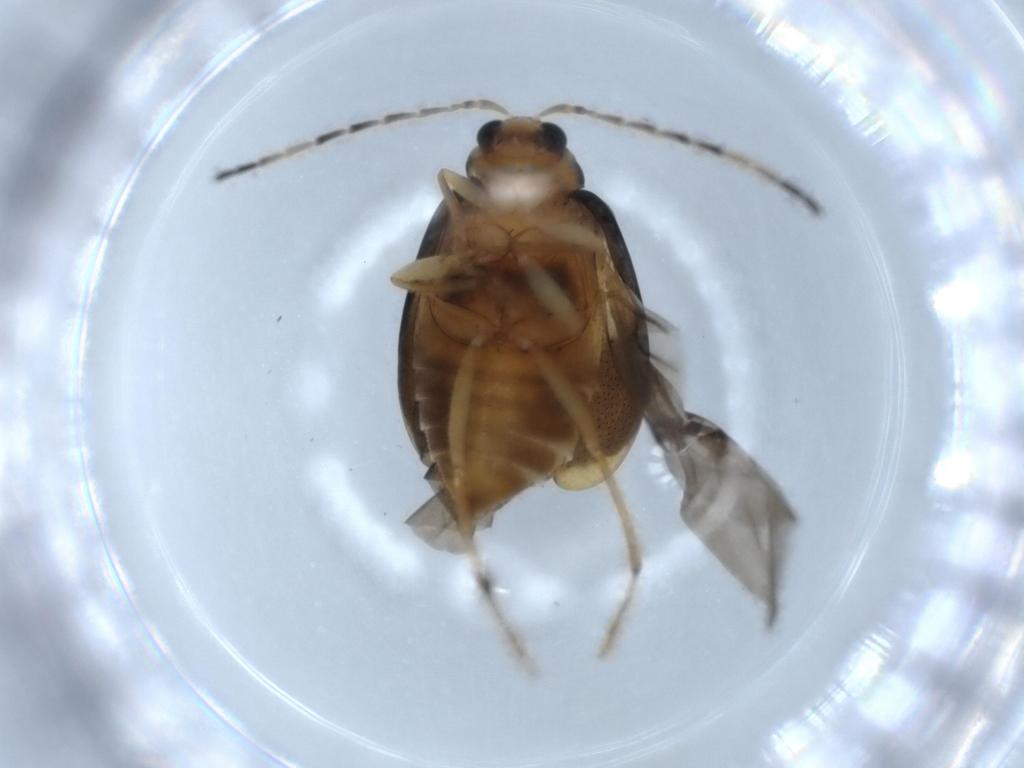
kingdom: Animalia
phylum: Arthropoda
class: Insecta
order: Coleoptera
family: Chrysomelidae
